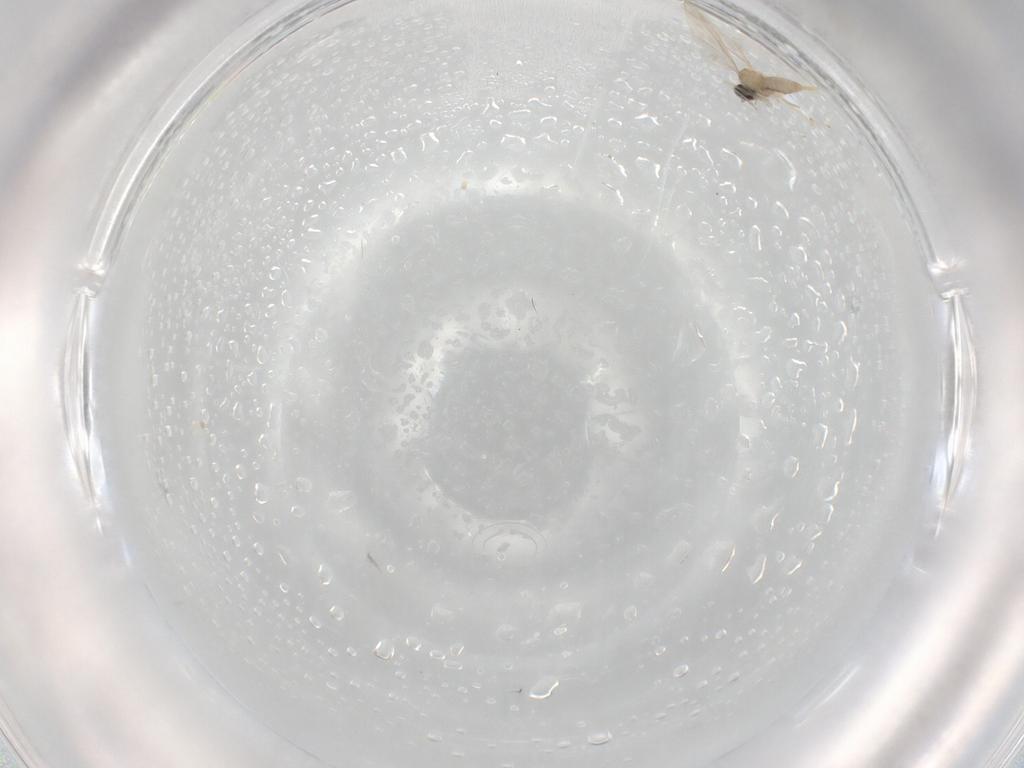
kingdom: Animalia
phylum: Arthropoda
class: Insecta
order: Diptera
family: Cecidomyiidae
